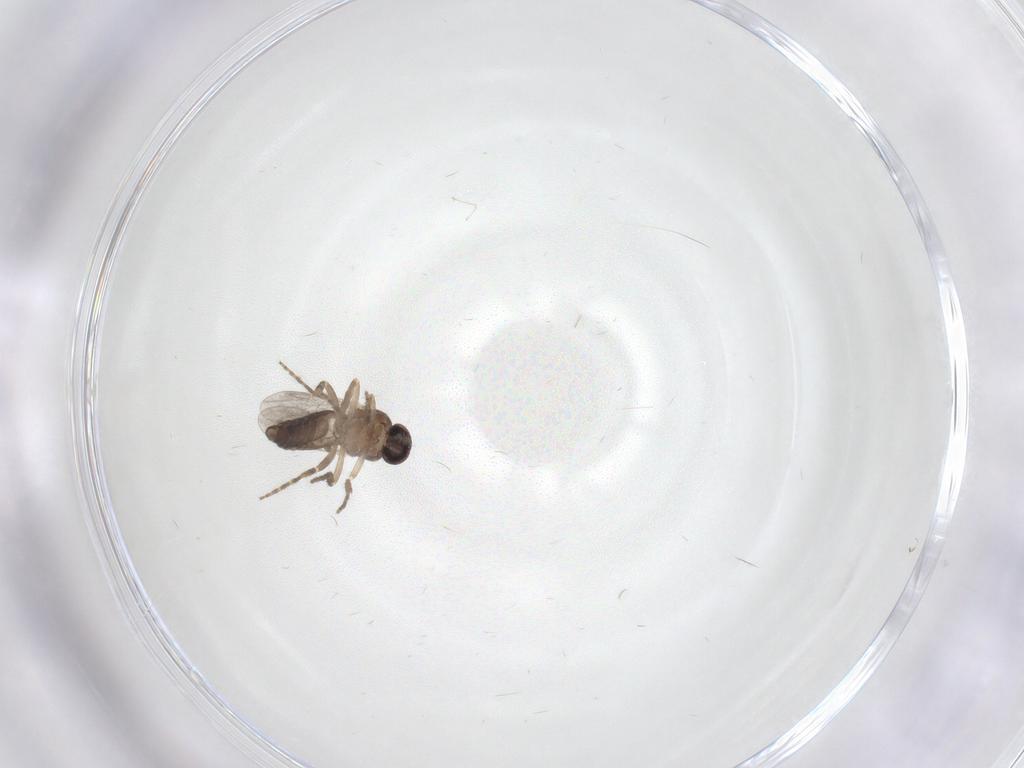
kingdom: Animalia
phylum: Arthropoda
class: Insecta
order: Diptera
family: Ceratopogonidae
